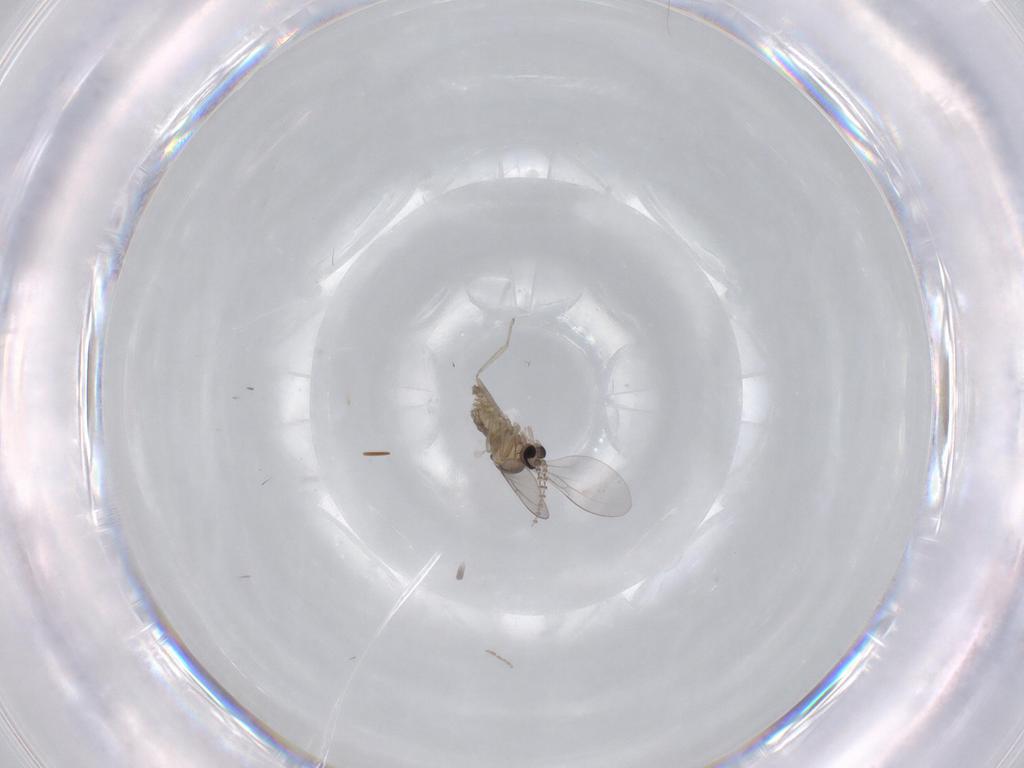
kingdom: Animalia
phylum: Arthropoda
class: Insecta
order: Diptera
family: Cecidomyiidae
